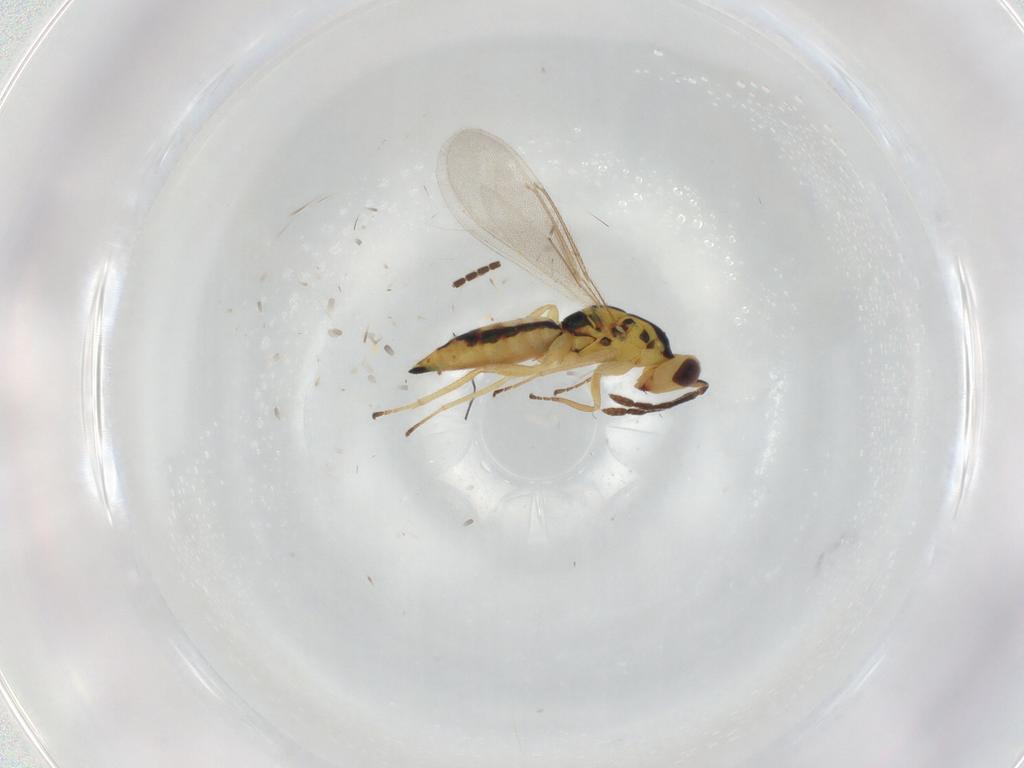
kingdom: Animalia
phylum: Arthropoda
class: Insecta
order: Hymenoptera
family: Eulophidae
